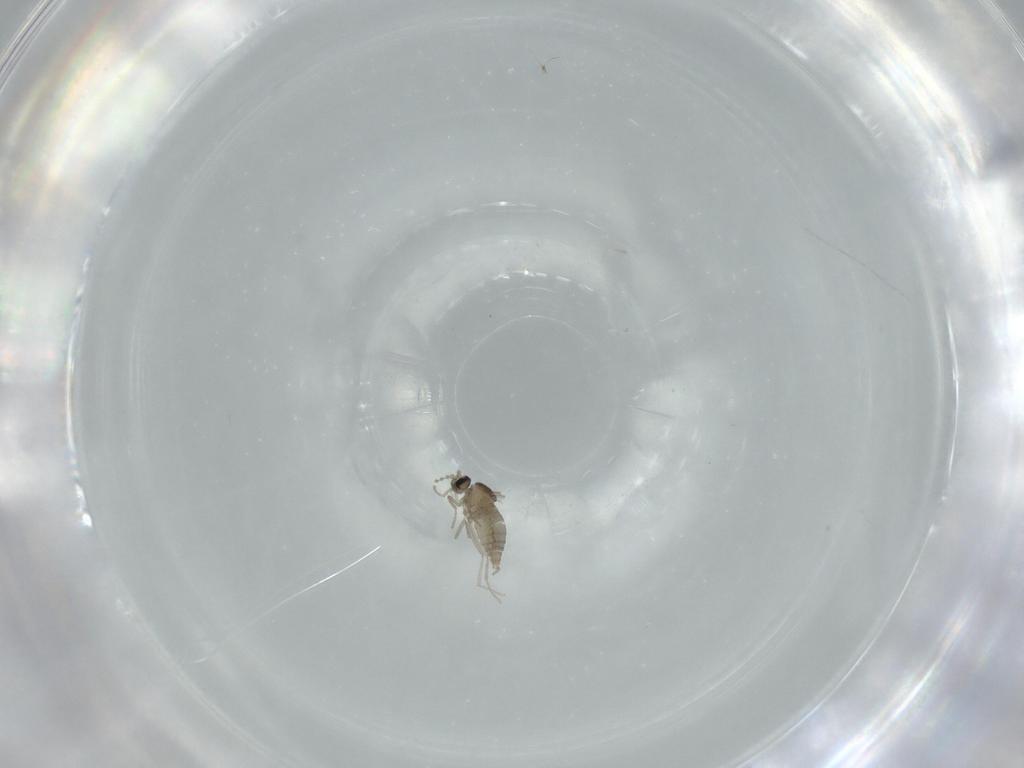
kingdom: Animalia
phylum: Arthropoda
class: Insecta
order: Diptera
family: Cecidomyiidae
